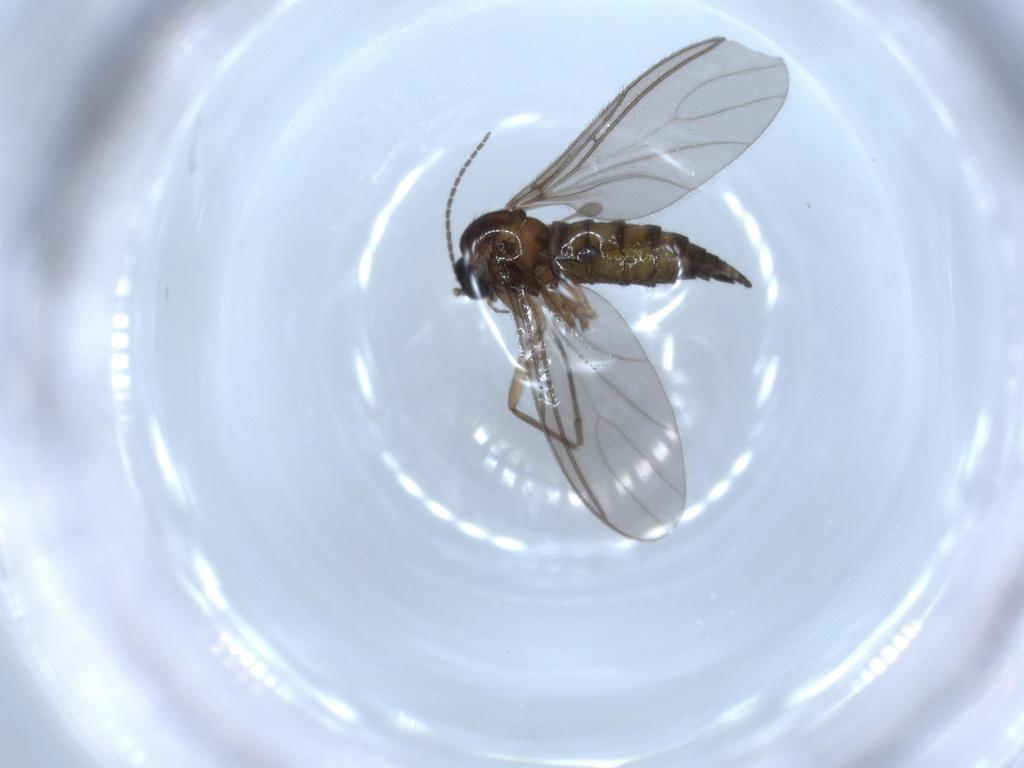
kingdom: Animalia
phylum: Arthropoda
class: Insecta
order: Diptera
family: Sciaridae
